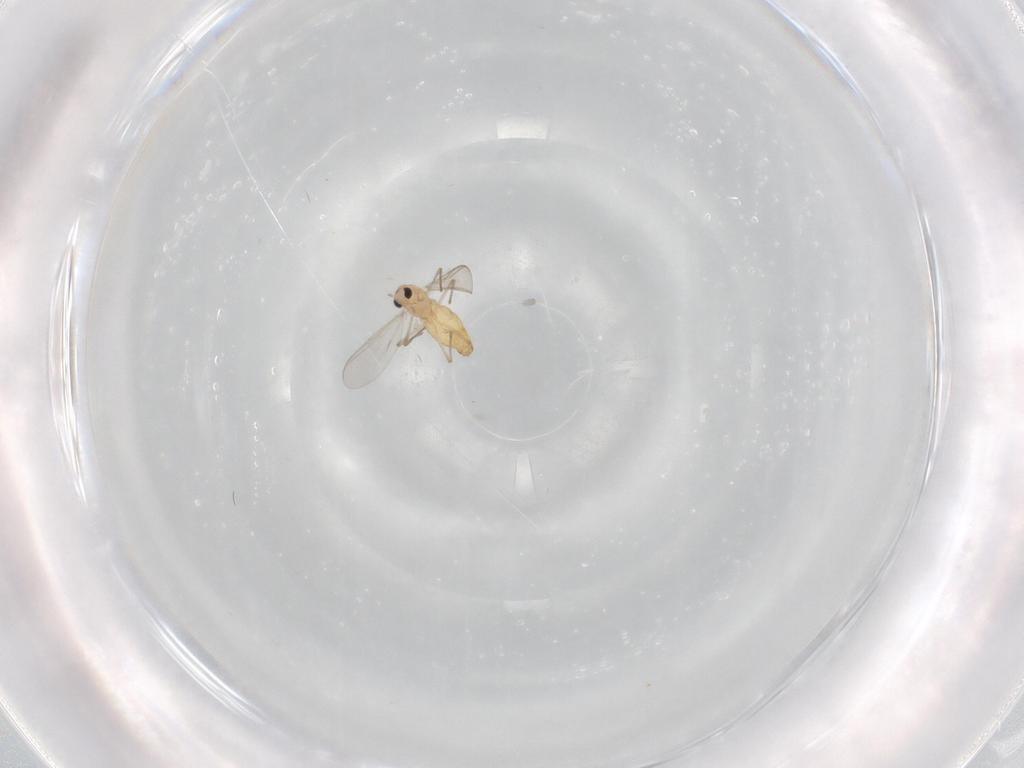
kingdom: Animalia
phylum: Arthropoda
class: Insecta
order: Diptera
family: Chironomidae
